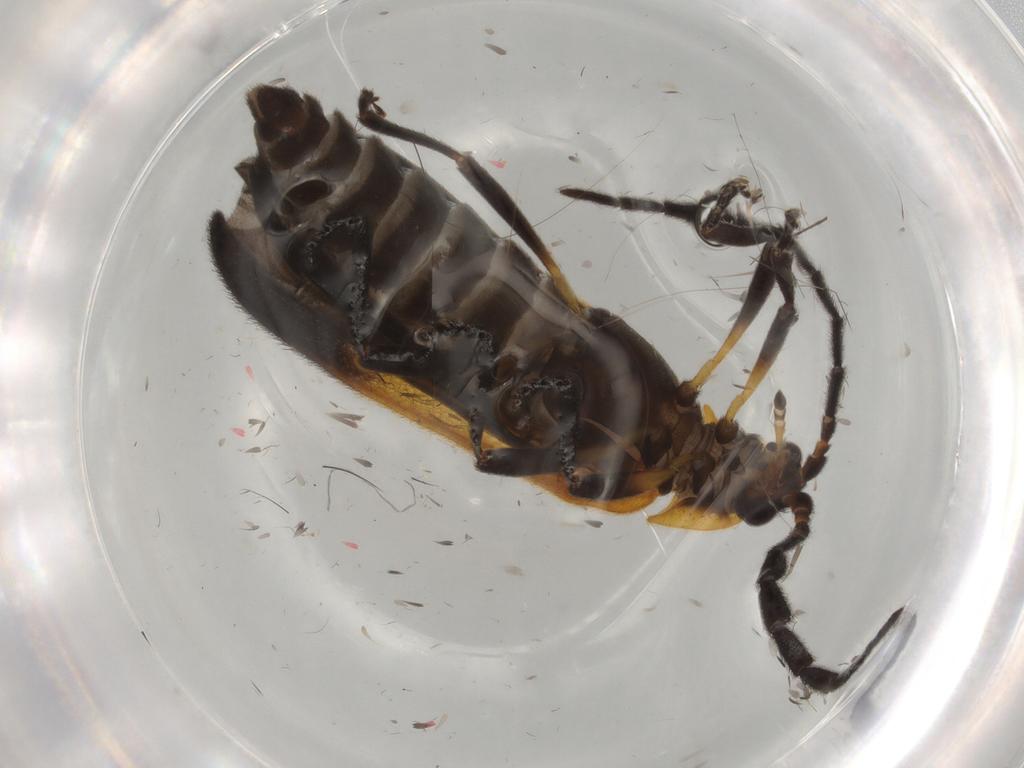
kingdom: Animalia
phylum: Arthropoda
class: Insecta
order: Coleoptera
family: Lycidae
